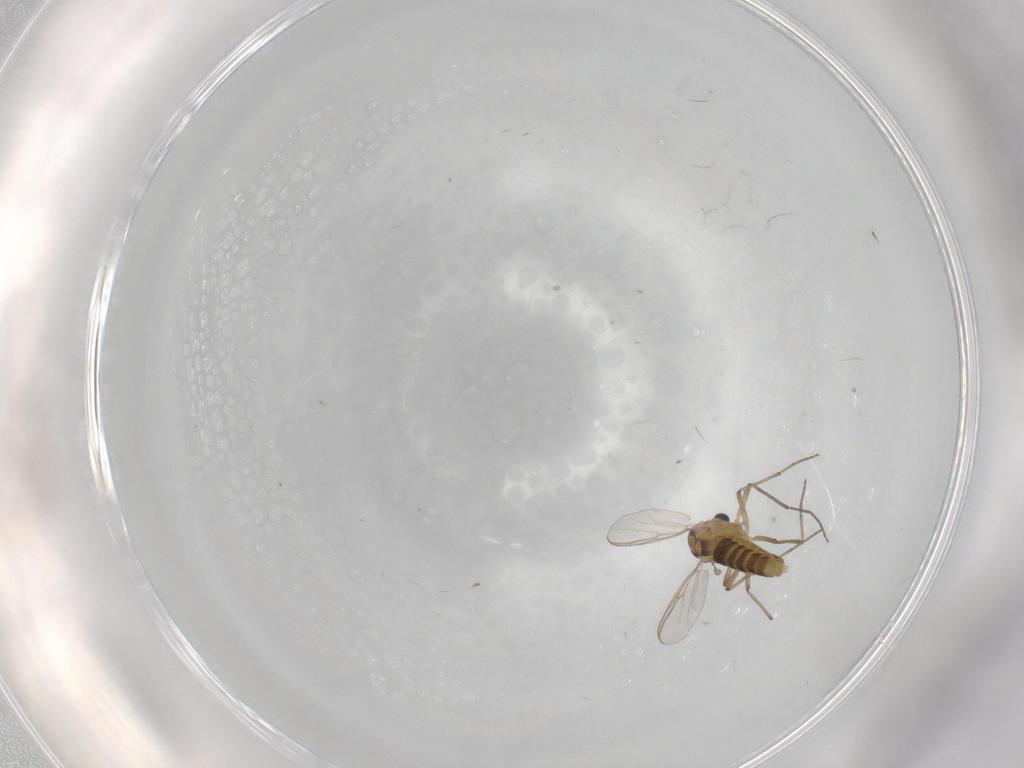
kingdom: Animalia
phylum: Arthropoda
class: Insecta
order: Diptera
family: Chironomidae
